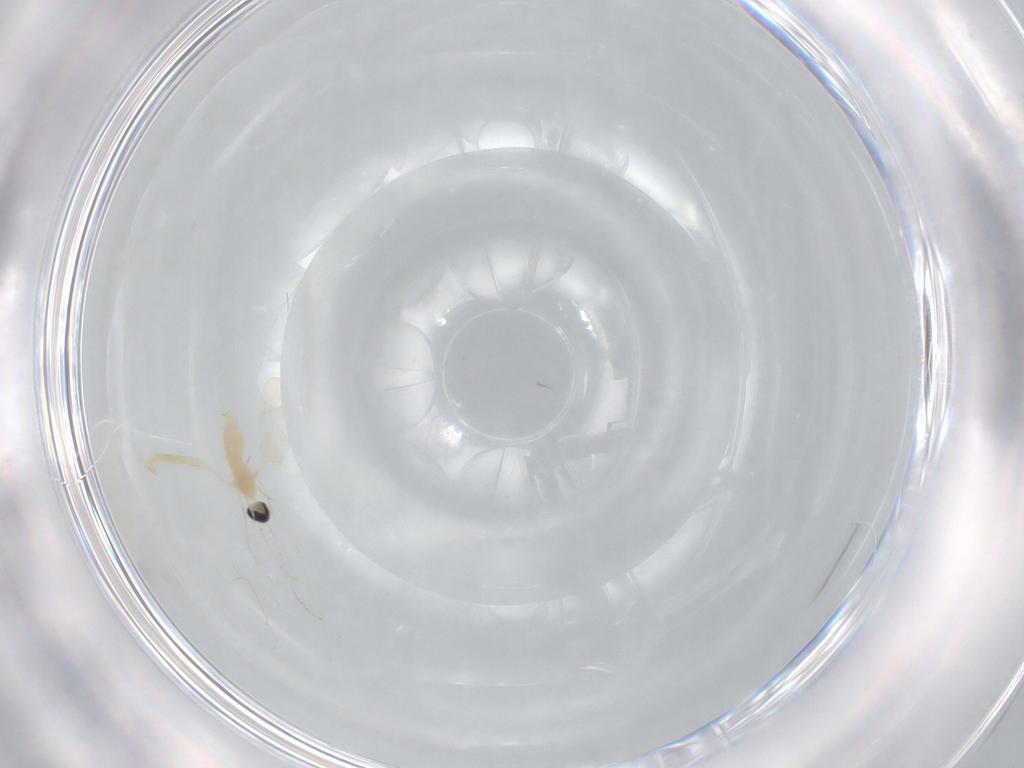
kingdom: Animalia
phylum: Arthropoda
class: Insecta
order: Diptera
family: Cecidomyiidae
